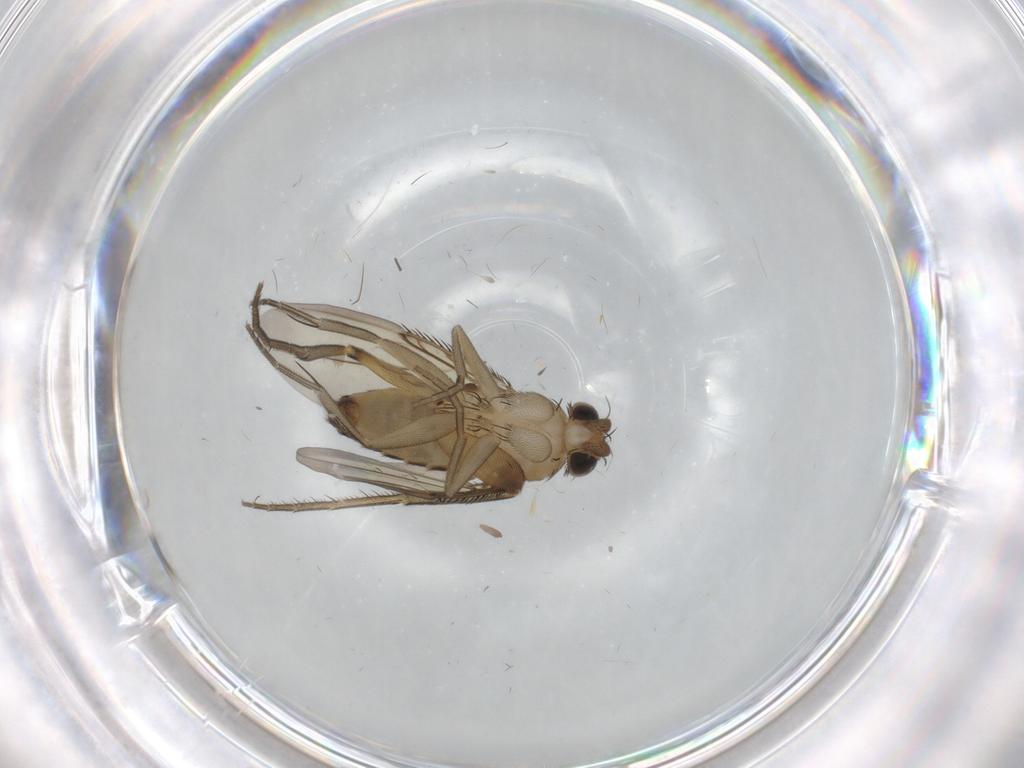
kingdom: Animalia
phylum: Arthropoda
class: Insecta
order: Diptera
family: Phoridae
